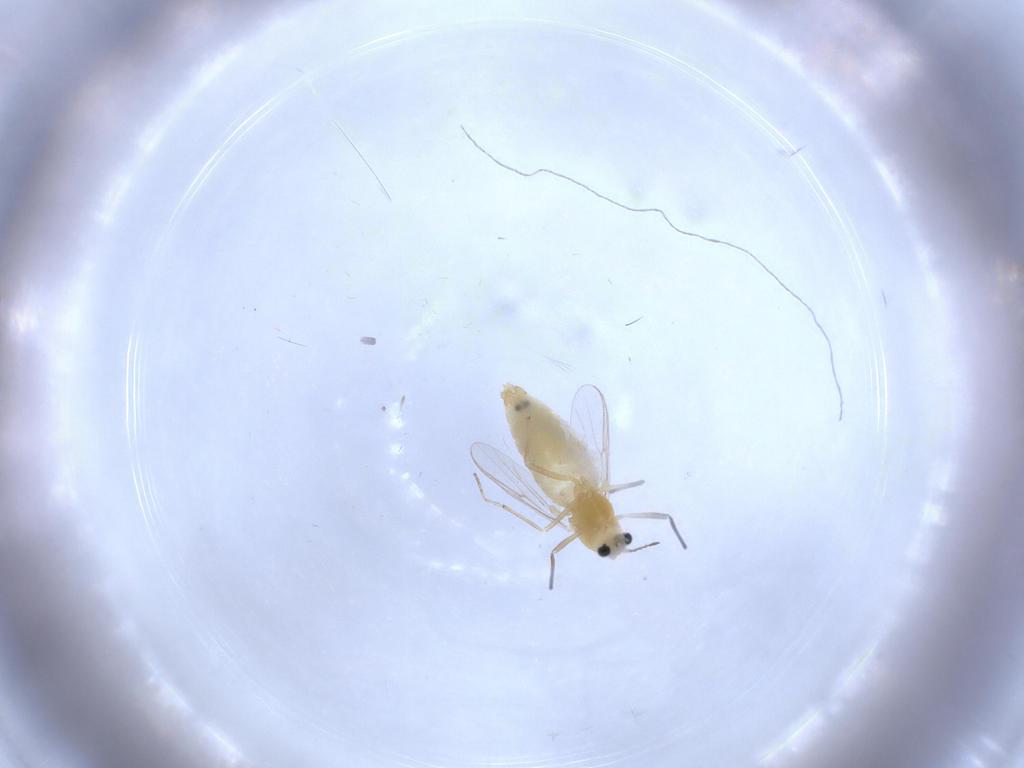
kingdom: Animalia
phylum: Arthropoda
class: Insecta
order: Diptera
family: Chironomidae
